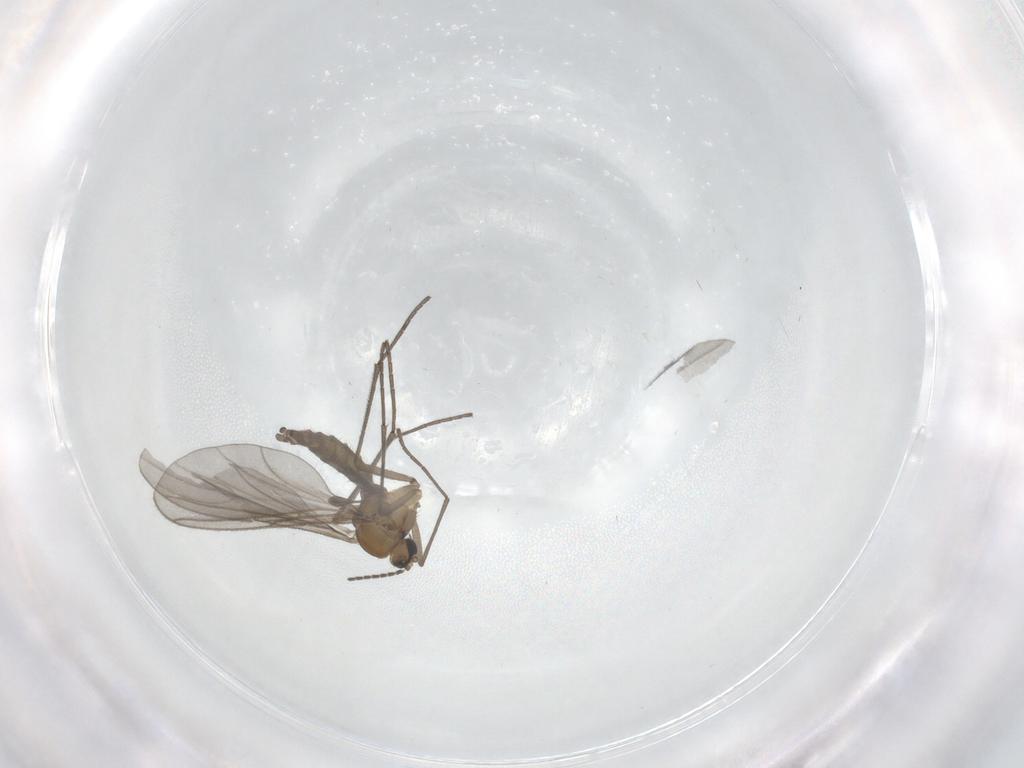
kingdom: Animalia
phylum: Arthropoda
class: Insecta
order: Diptera
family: Sciaridae
